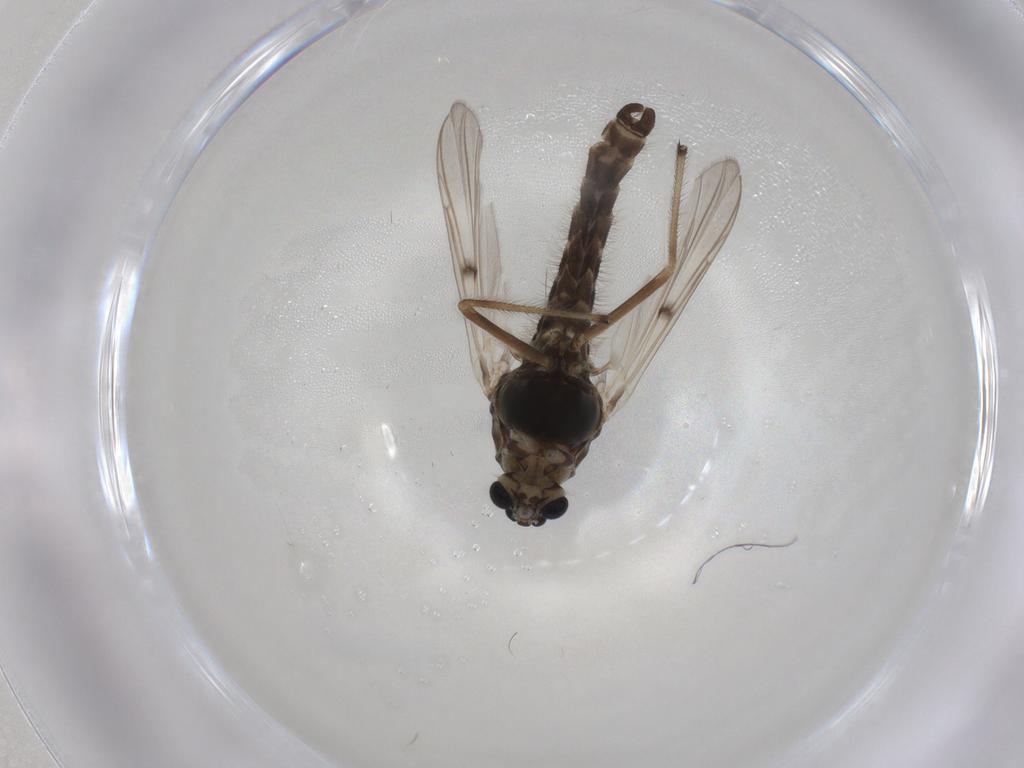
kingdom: Animalia
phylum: Arthropoda
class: Insecta
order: Diptera
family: Chironomidae
